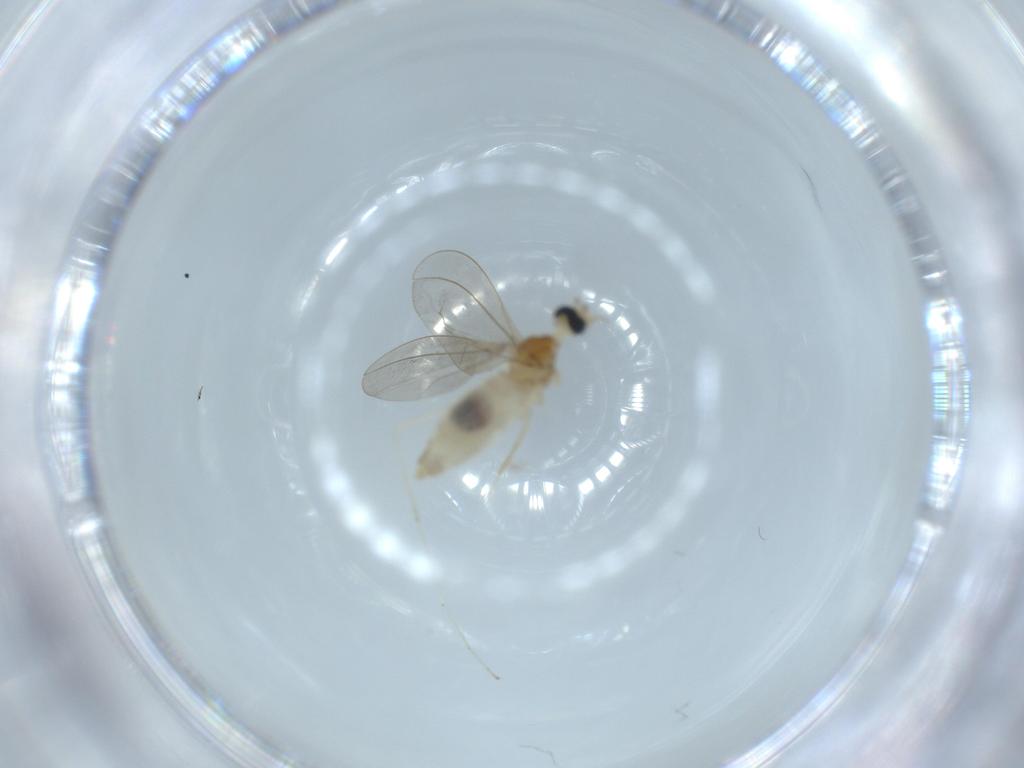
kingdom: Animalia
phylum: Arthropoda
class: Insecta
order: Diptera
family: Cecidomyiidae
